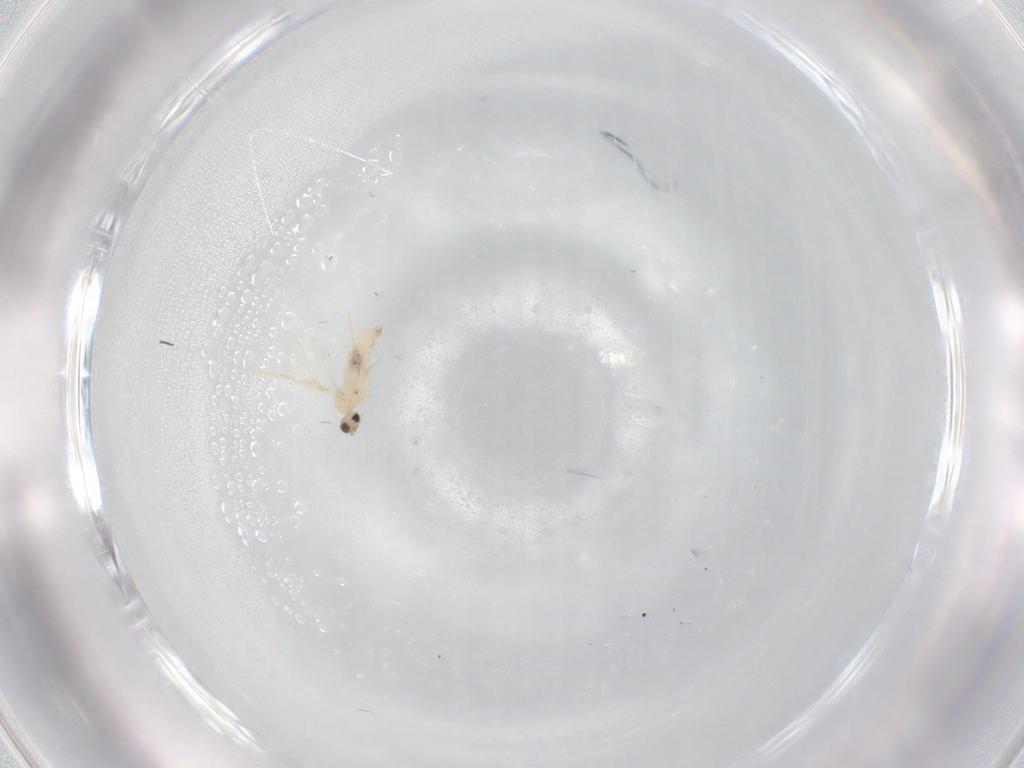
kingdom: Animalia
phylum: Arthropoda
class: Insecta
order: Diptera
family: Cecidomyiidae
